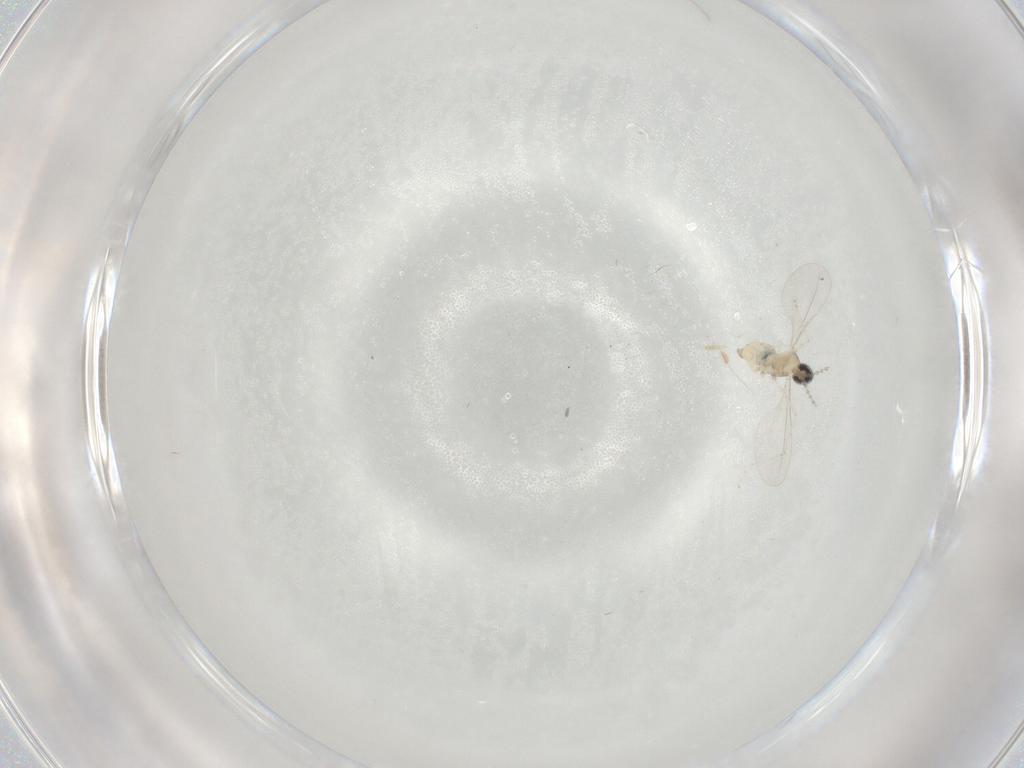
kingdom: Animalia
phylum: Arthropoda
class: Insecta
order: Diptera
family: Cecidomyiidae
